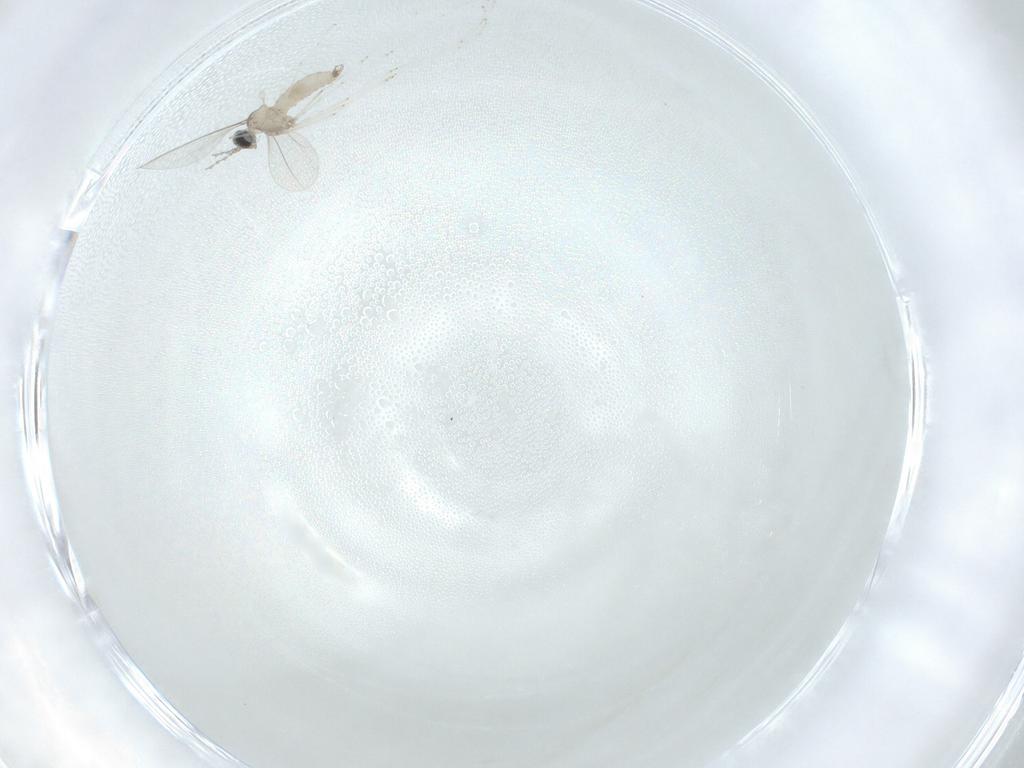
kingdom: Animalia
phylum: Arthropoda
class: Insecta
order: Diptera
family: Cecidomyiidae
